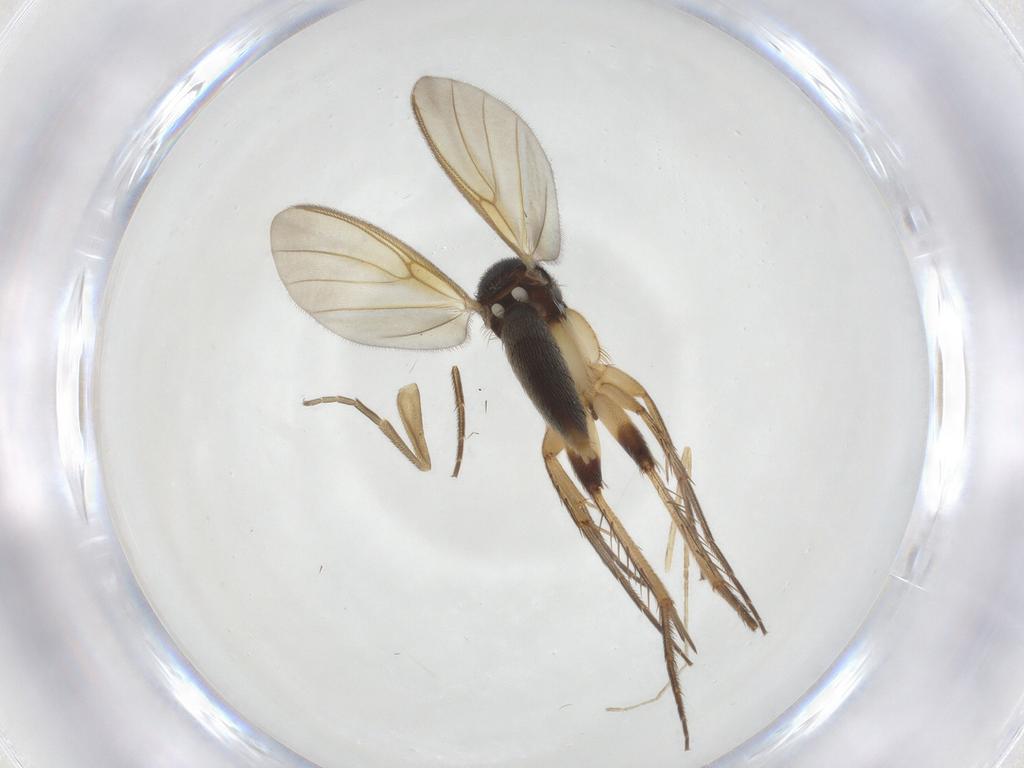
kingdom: Animalia
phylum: Arthropoda
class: Insecta
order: Diptera
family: Mycetophilidae
